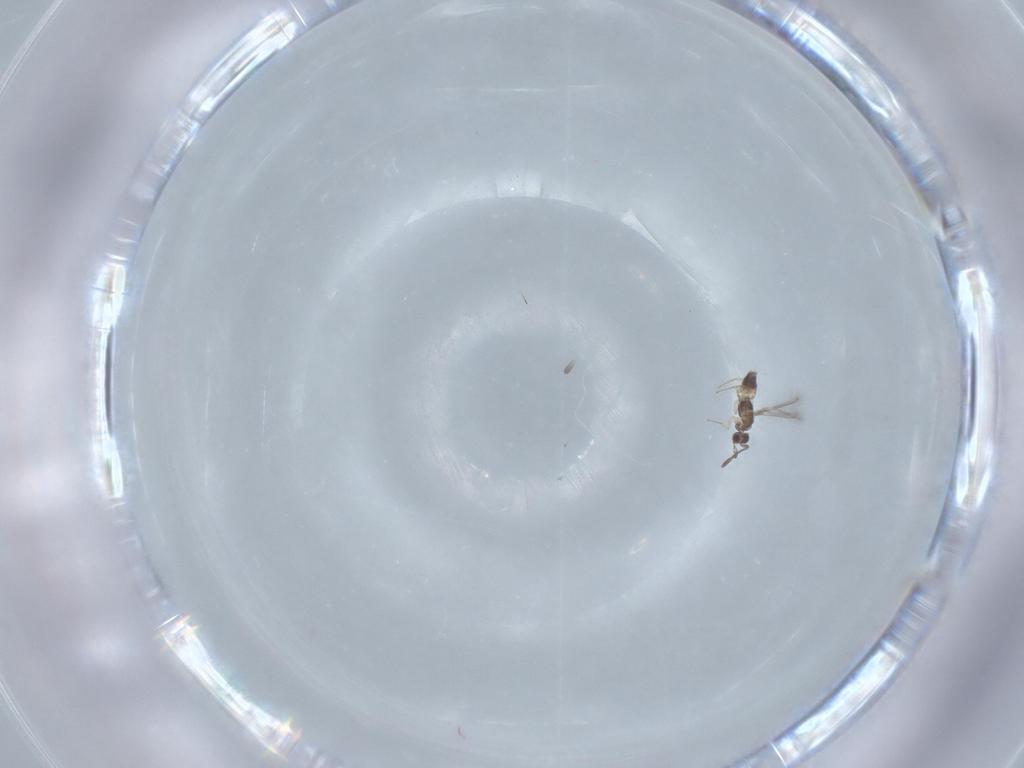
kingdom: Animalia
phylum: Arthropoda
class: Insecta
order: Hymenoptera
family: Mymaridae
